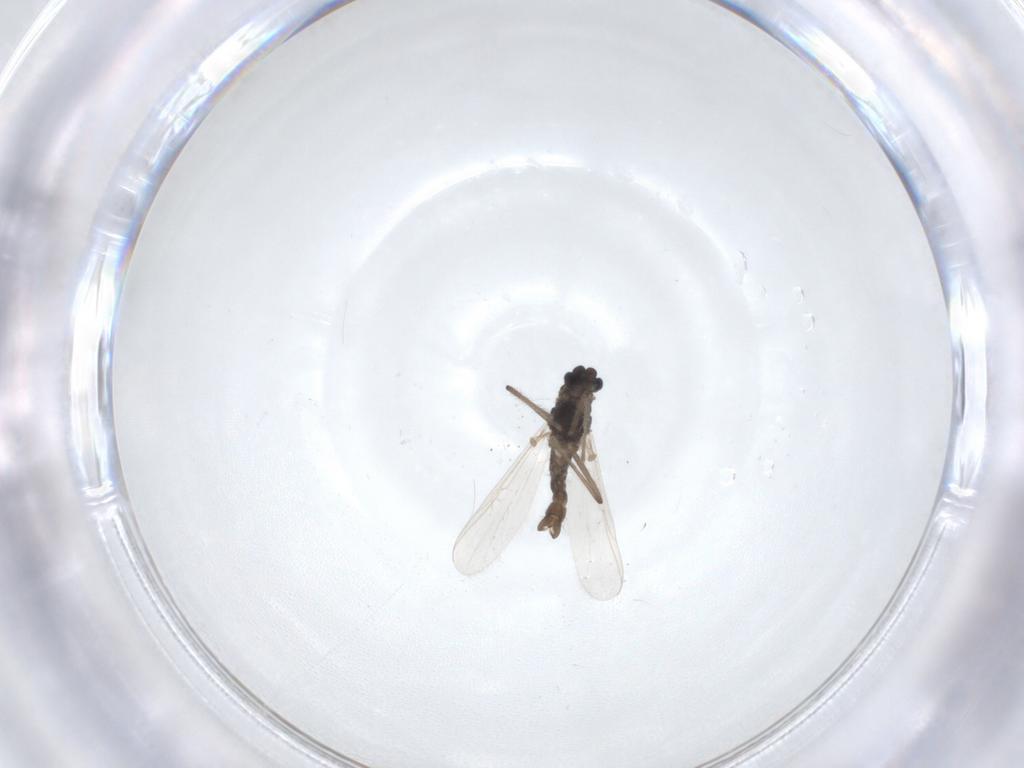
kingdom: Animalia
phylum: Arthropoda
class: Insecta
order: Diptera
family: Chironomidae
